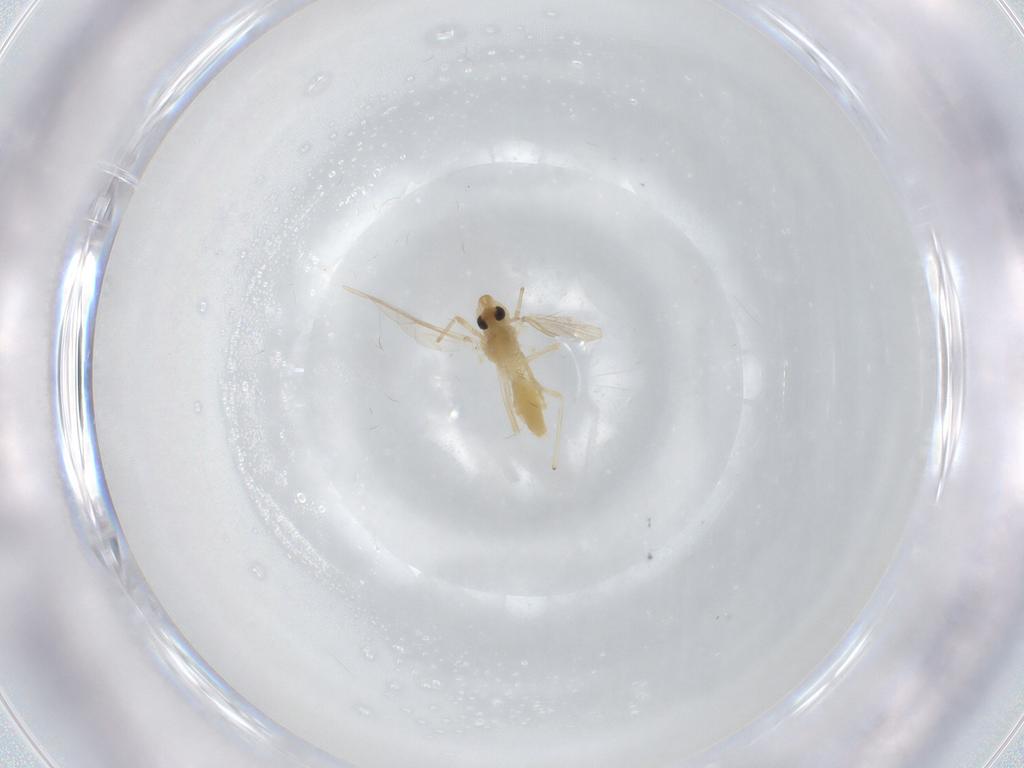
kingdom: Animalia
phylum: Arthropoda
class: Insecta
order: Diptera
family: Chironomidae
